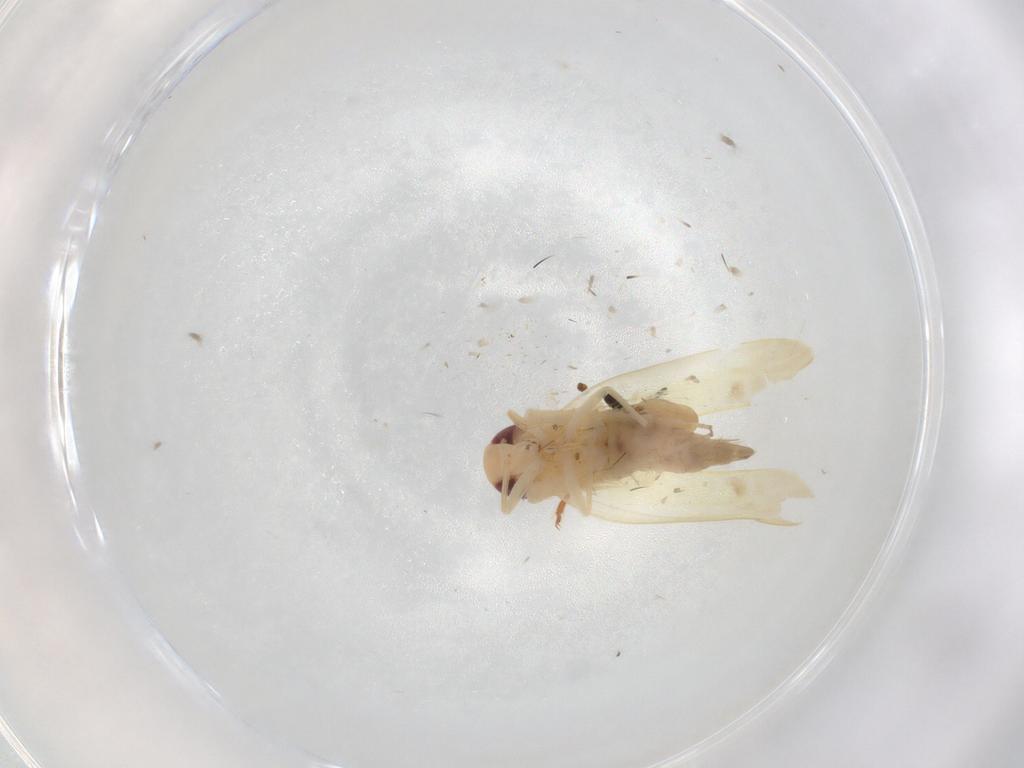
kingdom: Animalia
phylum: Arthropoda
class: Insecta
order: Hemiptera
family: Cicadellidae
